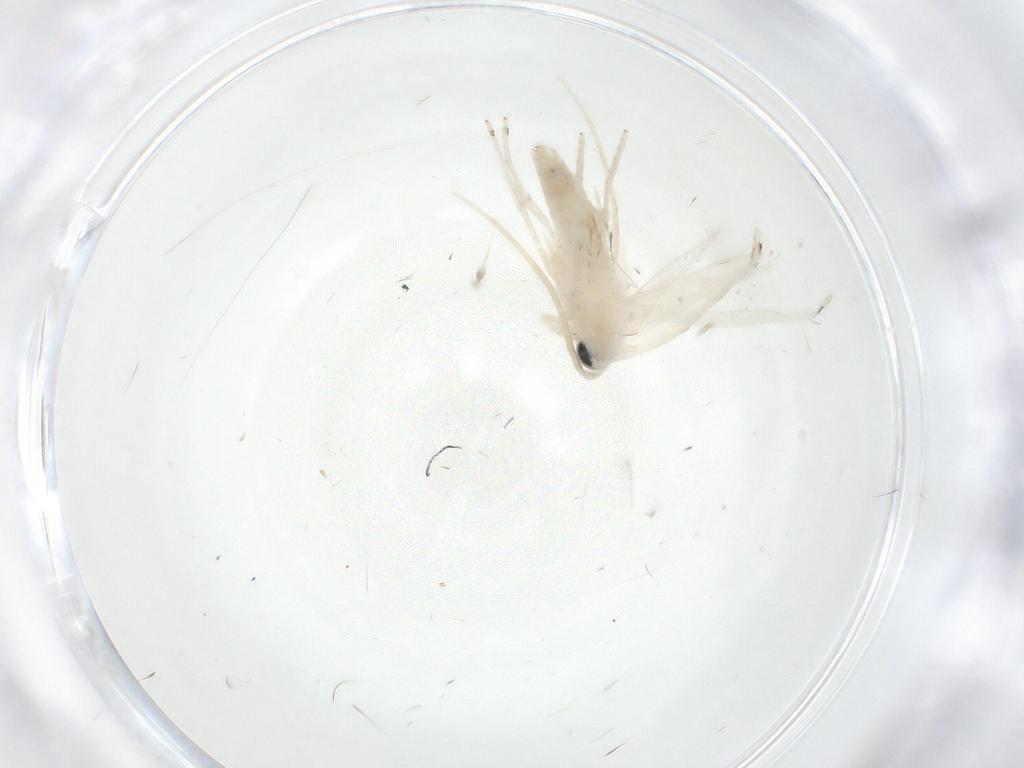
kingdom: Animalia
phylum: Arthropoda
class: Insecta
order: Lepidoptera
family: Lyonetiidae
